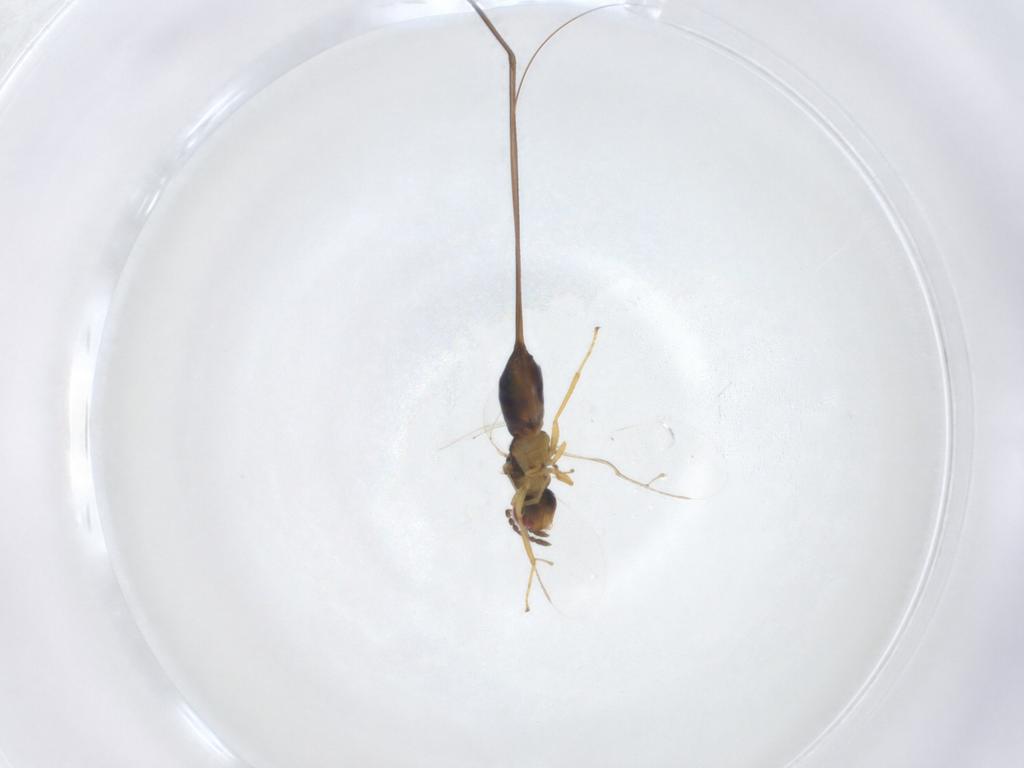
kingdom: Animalia
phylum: Arthropoda
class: Insecta
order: Hymenoptera
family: Pteromalidae
